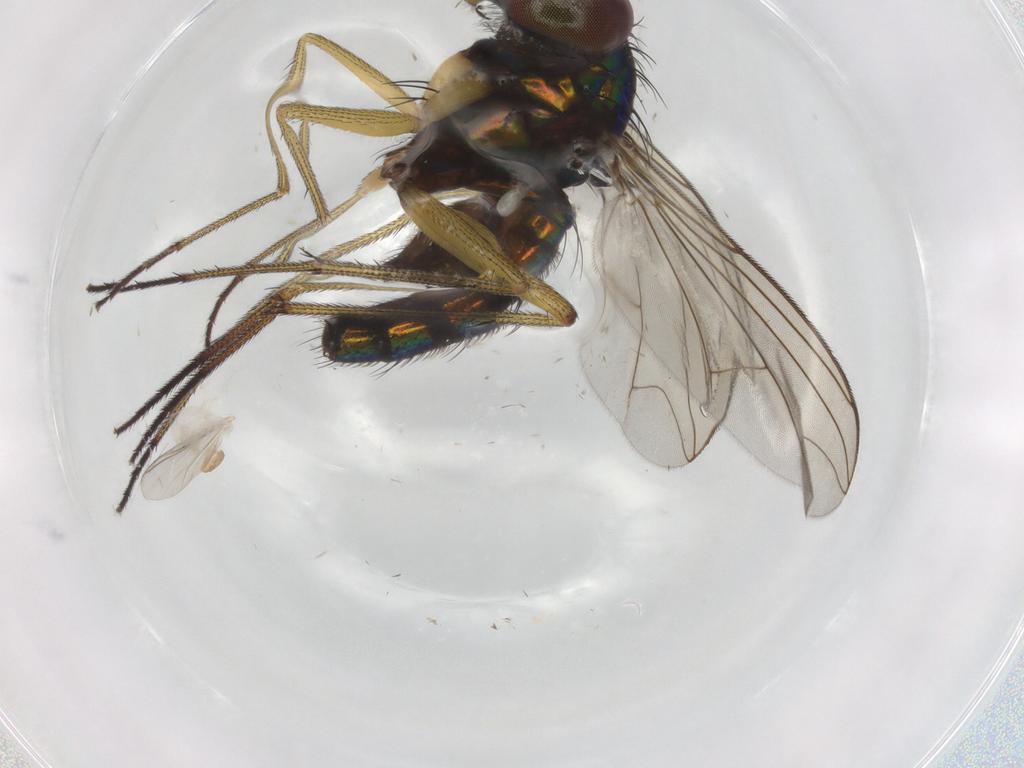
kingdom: Animalia
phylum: Arthropoda
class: Insecta
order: Diptera
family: Dolichopodidae
